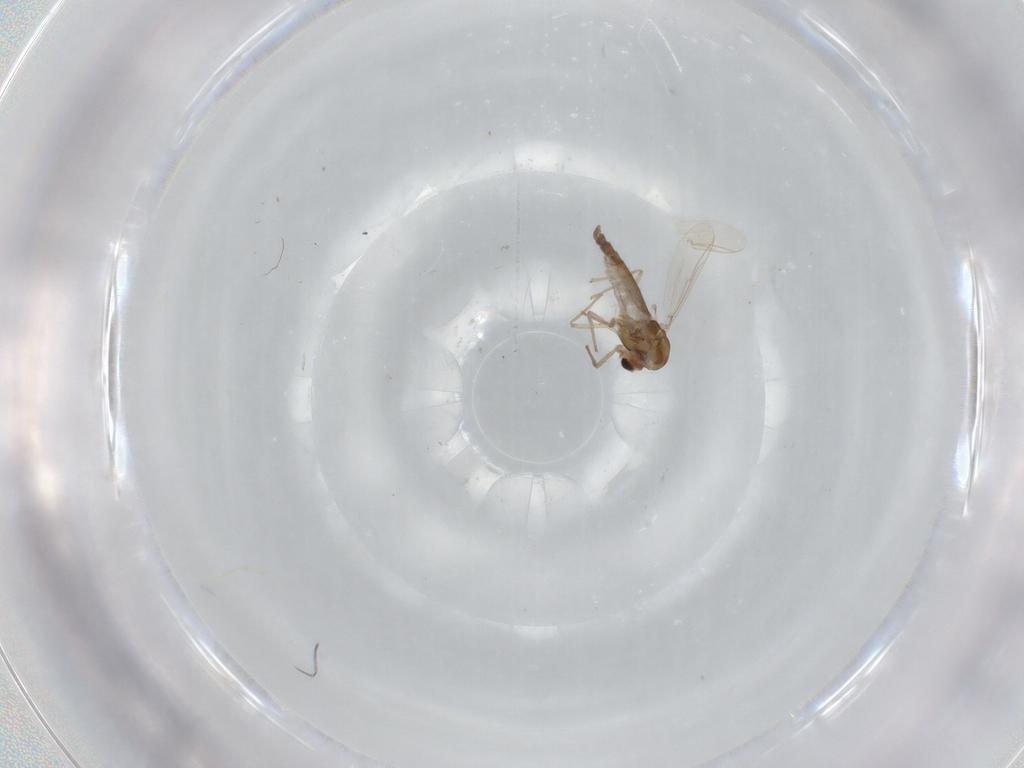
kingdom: Animalia
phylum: Arthropoda
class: Insecta
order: Diptera
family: Chironomidae
